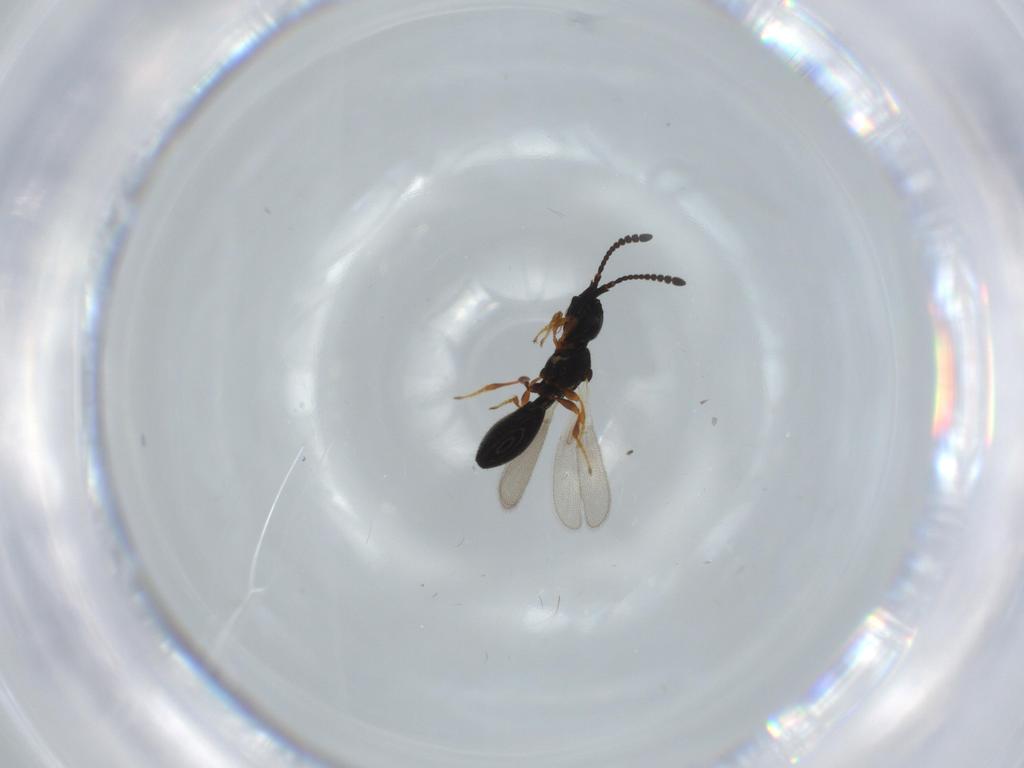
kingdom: Animalia
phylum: Arthropoda
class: Insecta
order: Hymenoptera
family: Diapriidae
